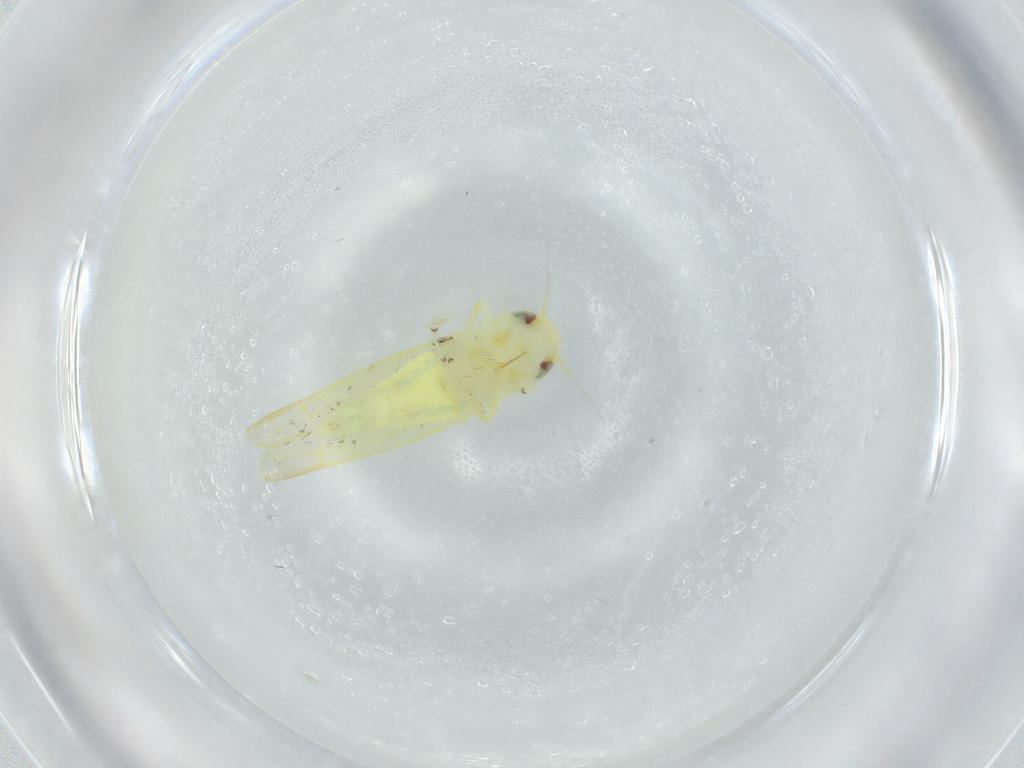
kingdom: Animalia
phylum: Arthropoda
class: Insecta
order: Hemiptera
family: Cicadellidae
